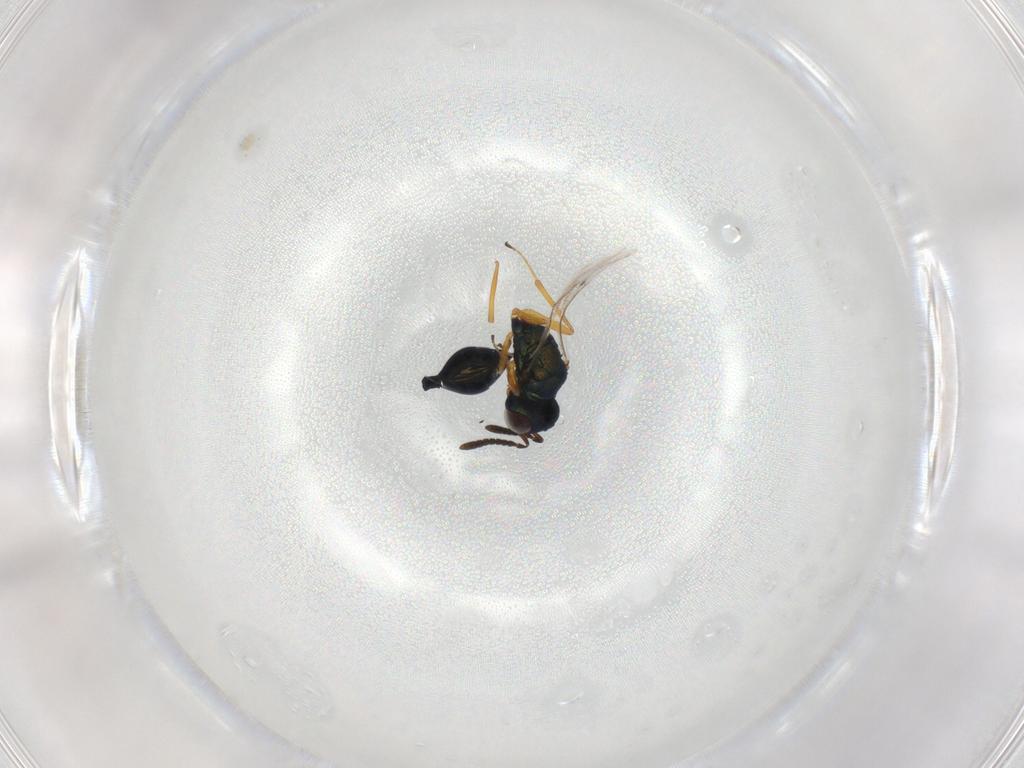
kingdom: Animalia
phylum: Arthropoda
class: Insecta
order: Hymenoptera
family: Pteromalidae
